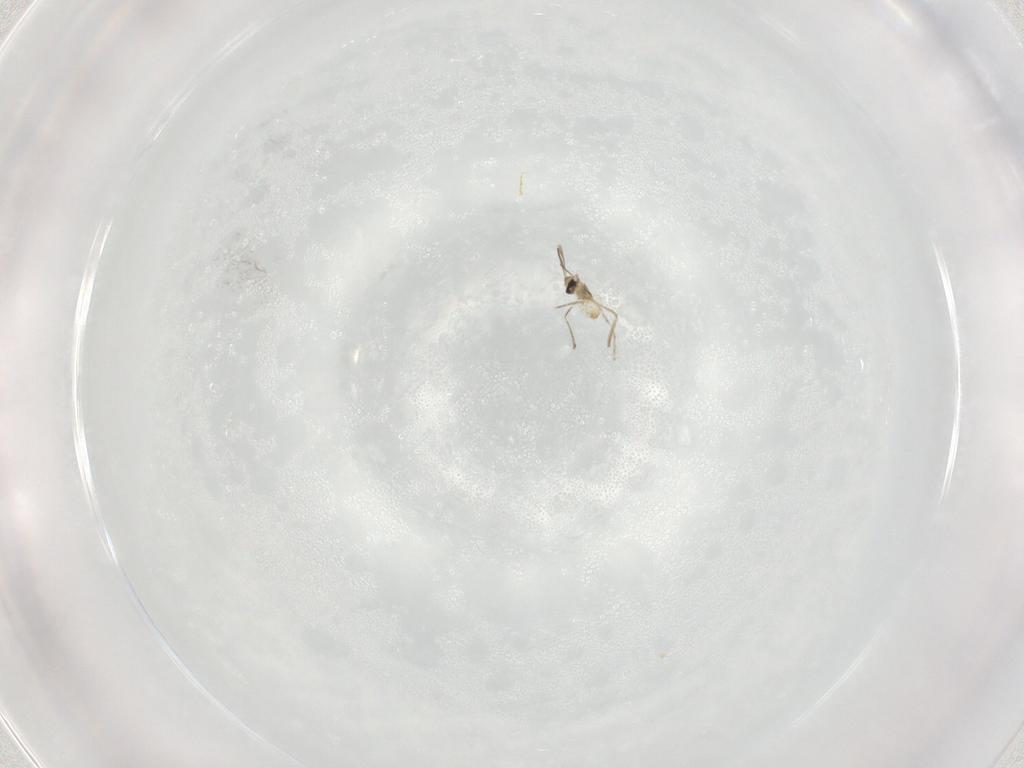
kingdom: Animalia
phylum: Arthropoda
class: Insecta
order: Diptera
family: Cecidomyiidae
